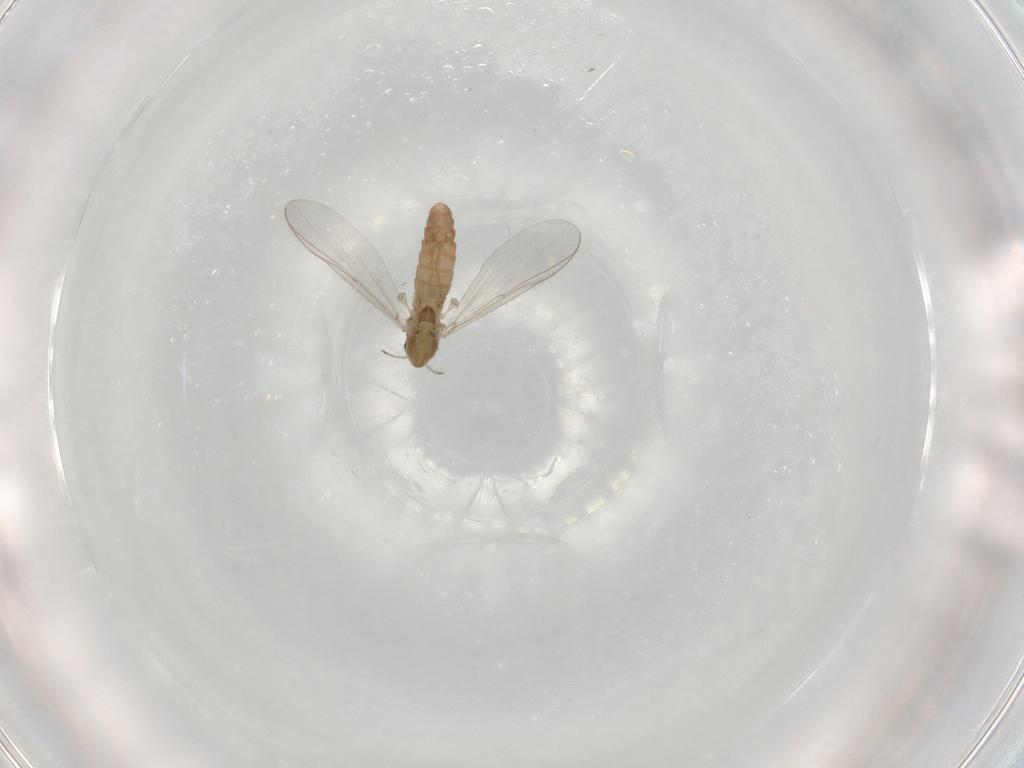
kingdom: Animalia
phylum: Arthropoda
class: Insecta
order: Diptera
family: Chironomidae
